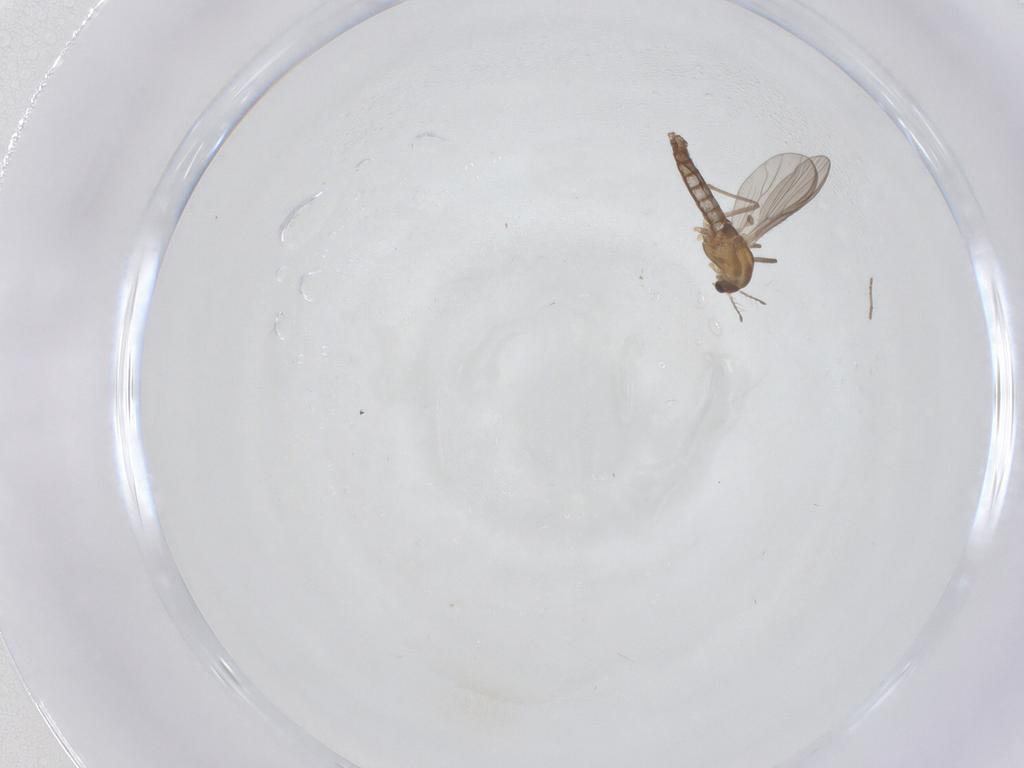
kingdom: Animalia
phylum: Arthropoda
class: Insecta
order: Diptera
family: Chironomidae
